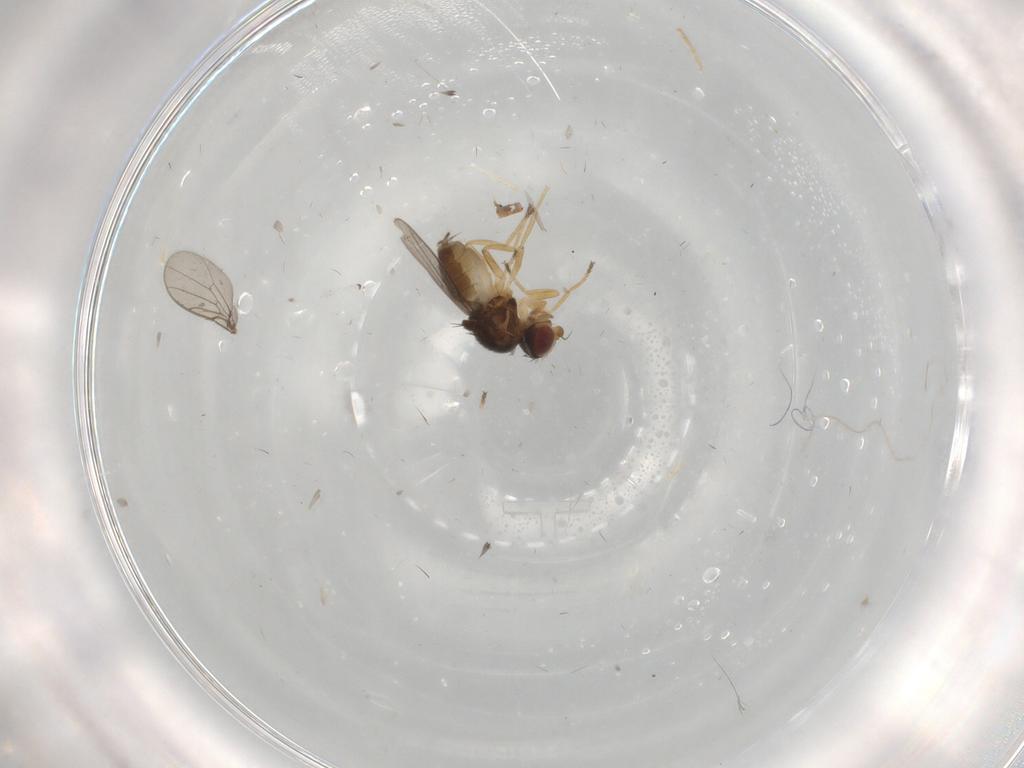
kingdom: Animalia
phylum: Arthropoda
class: Insecta
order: Diptera
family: Chloropidae
